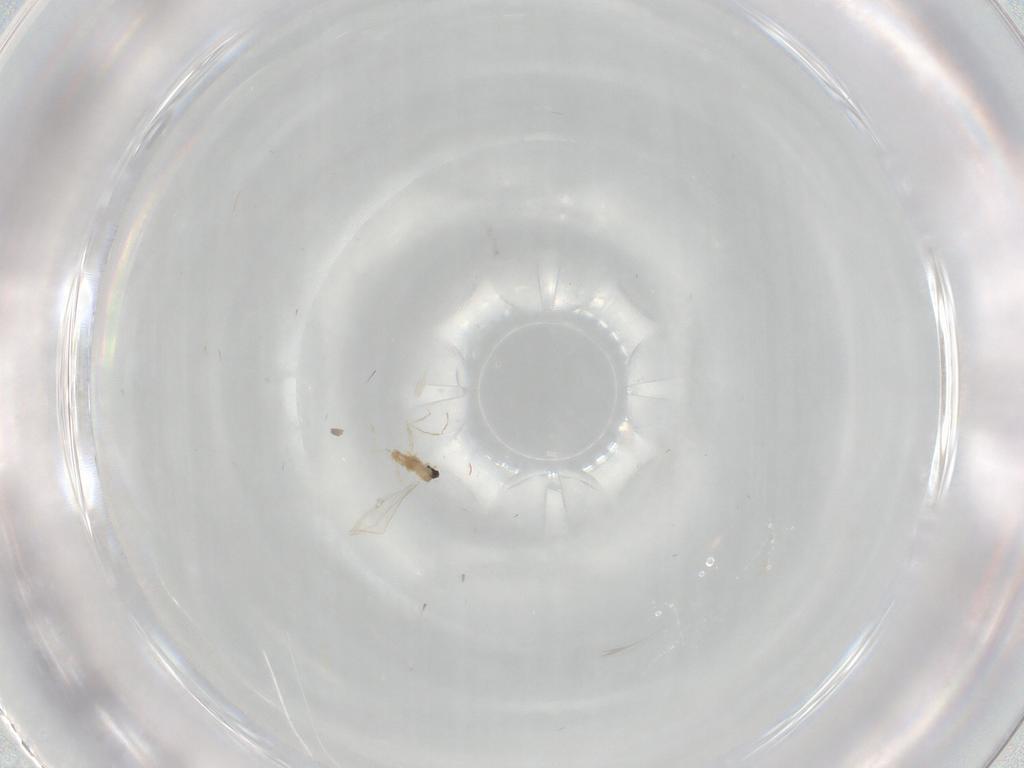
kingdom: Animalia
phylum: Arthropoda
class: Insecta
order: Diptera
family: Cecidomyiidae
